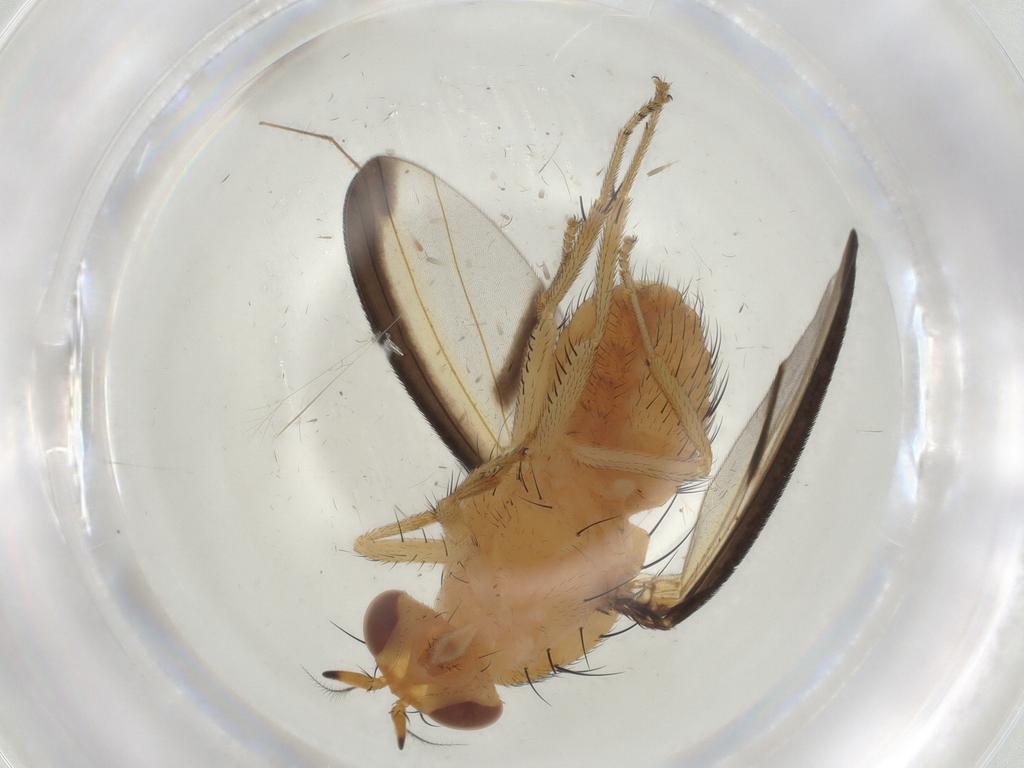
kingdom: Animalia
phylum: Arthropoda
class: Insecta
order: Diptera
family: Lauxaniidae
